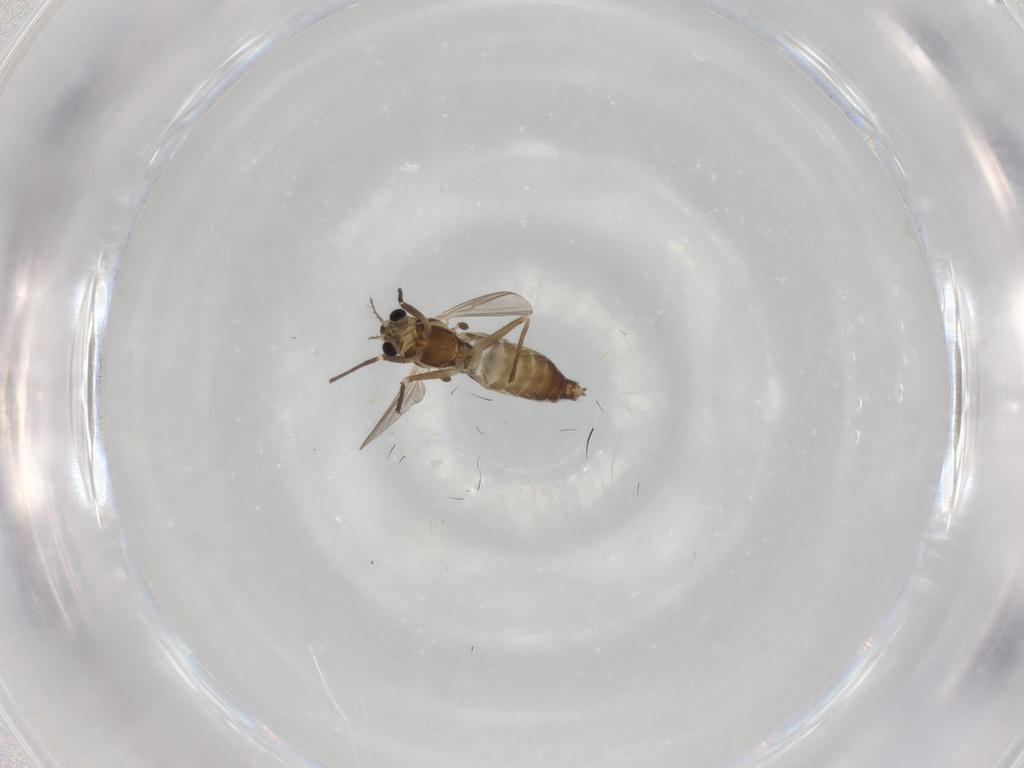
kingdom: Animalia
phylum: Arthropoda
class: Insecta
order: Diptera
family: Chironomidae
